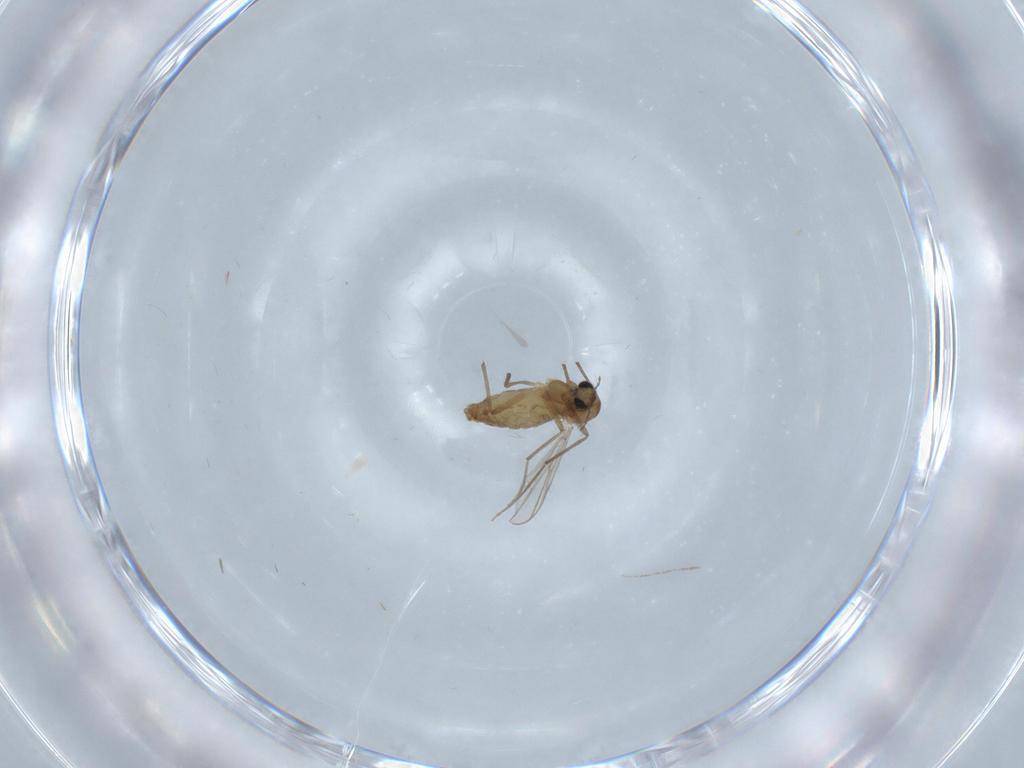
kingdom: Animalia
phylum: Arthropoda
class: Insecta
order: Diptera
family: Chironomidae
